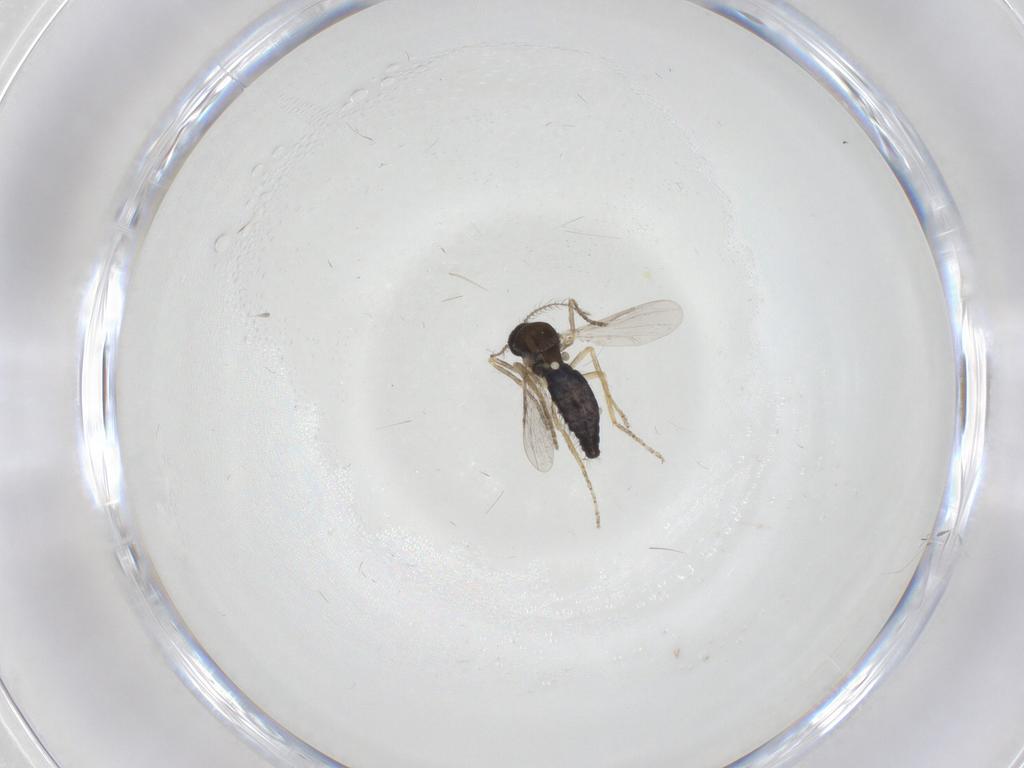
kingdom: Animalia
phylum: Arthropoda
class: Insecta
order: Diptera
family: Ceratopogonidae
